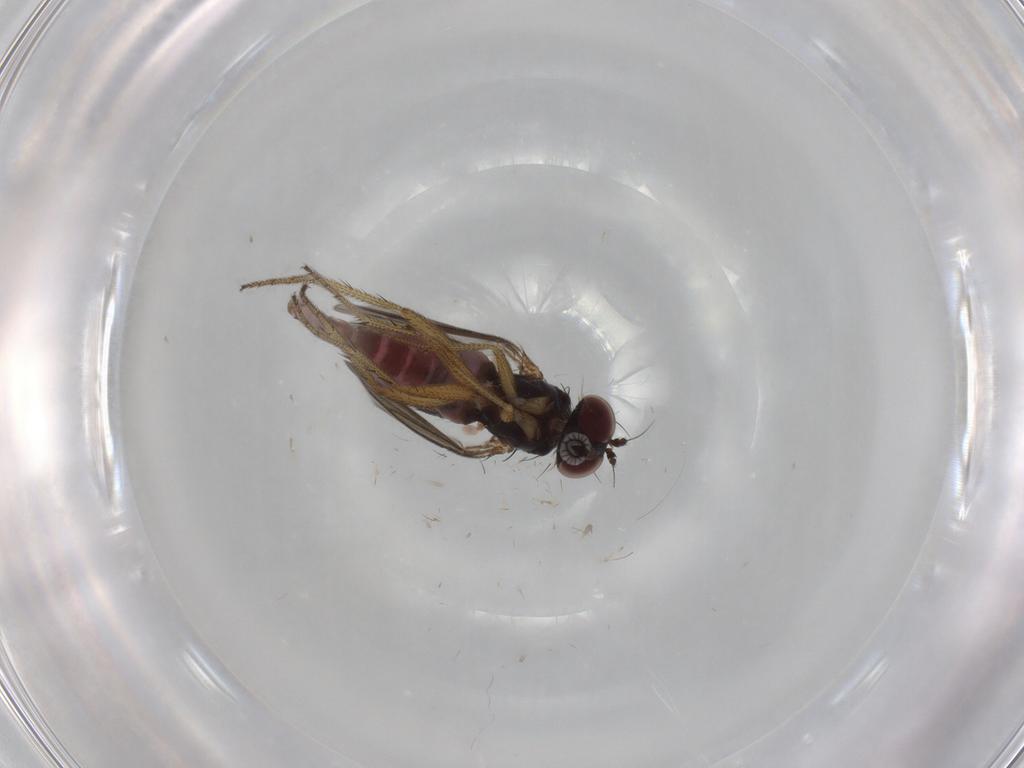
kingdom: Animalia
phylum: Arthropoda
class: Insecta
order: Diptera
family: Dolichopodidae
